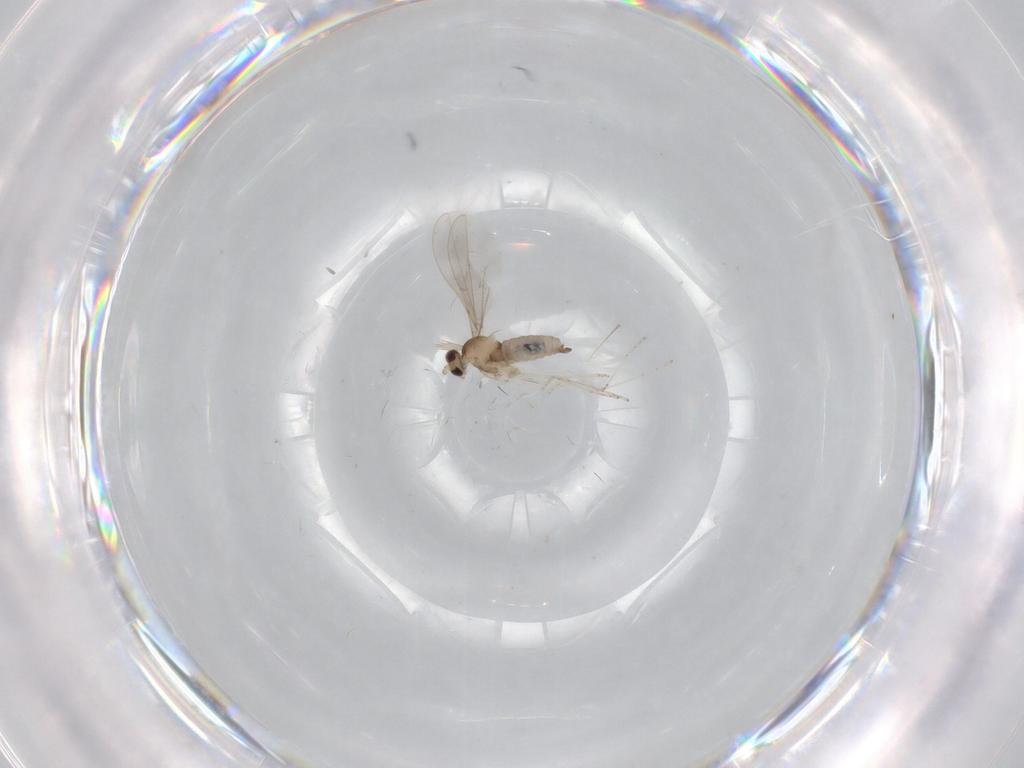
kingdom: Animalia
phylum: Arthropoda
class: Insecta
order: Diptera
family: Cecidomyiidae
